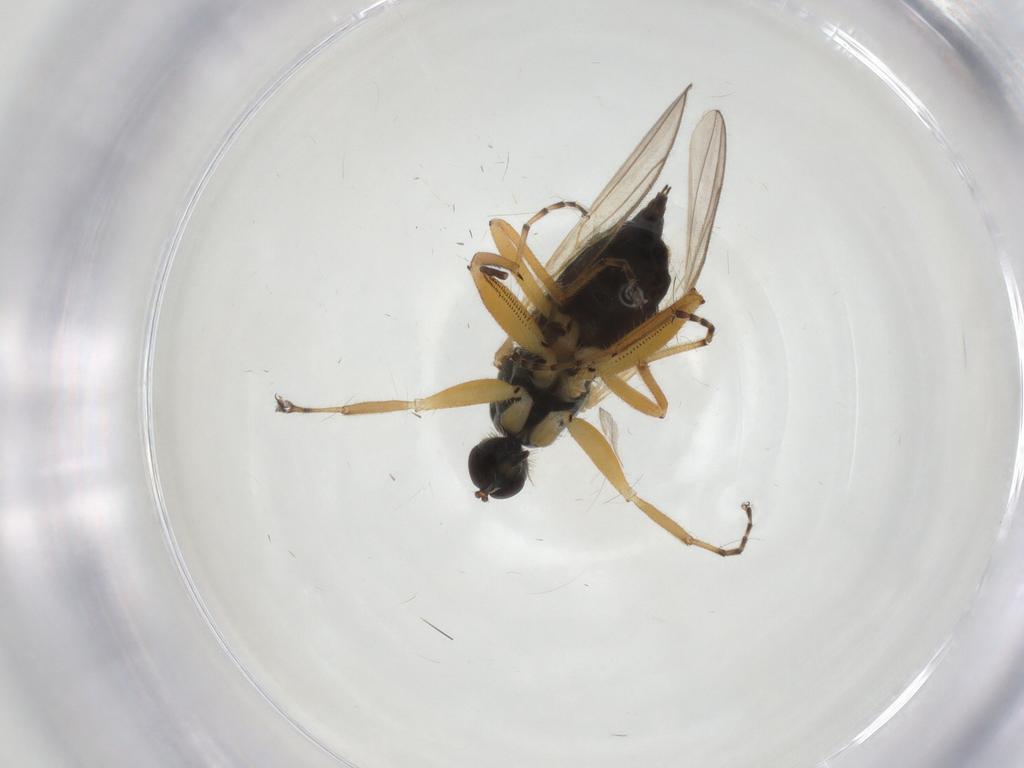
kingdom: Animalia
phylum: Arthropoda
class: Insecta
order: Diptera
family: Hybotidae
